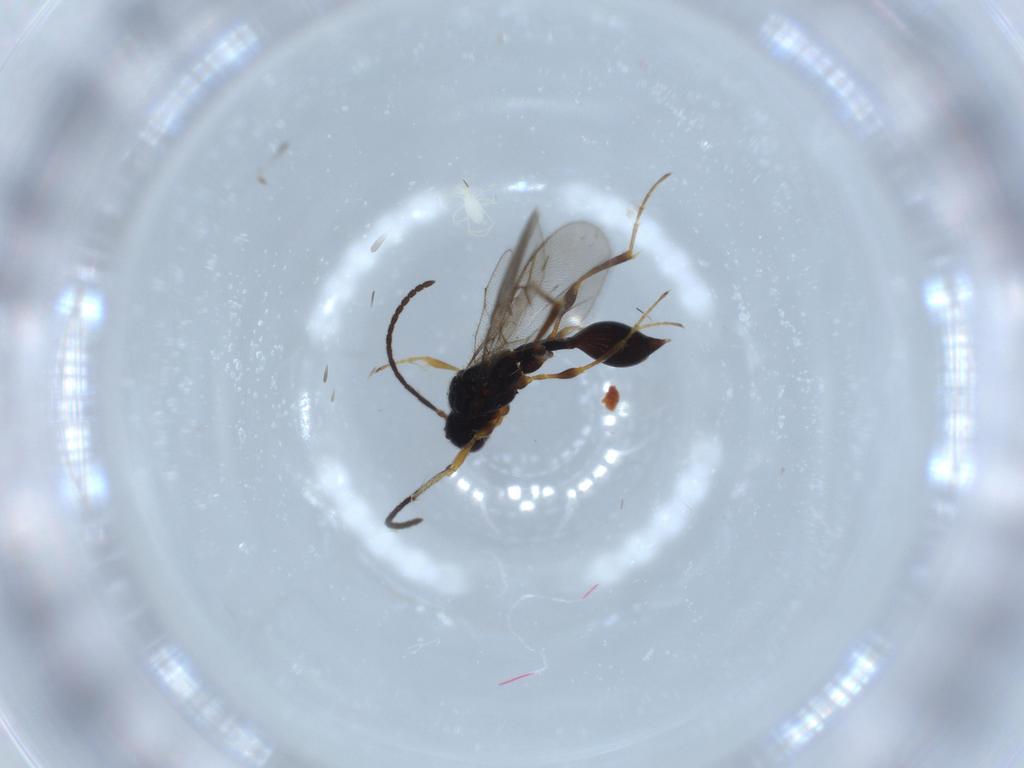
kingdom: Animalia
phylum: Arthropoda
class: Insecta
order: Hymenoptera
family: Diapriidae
